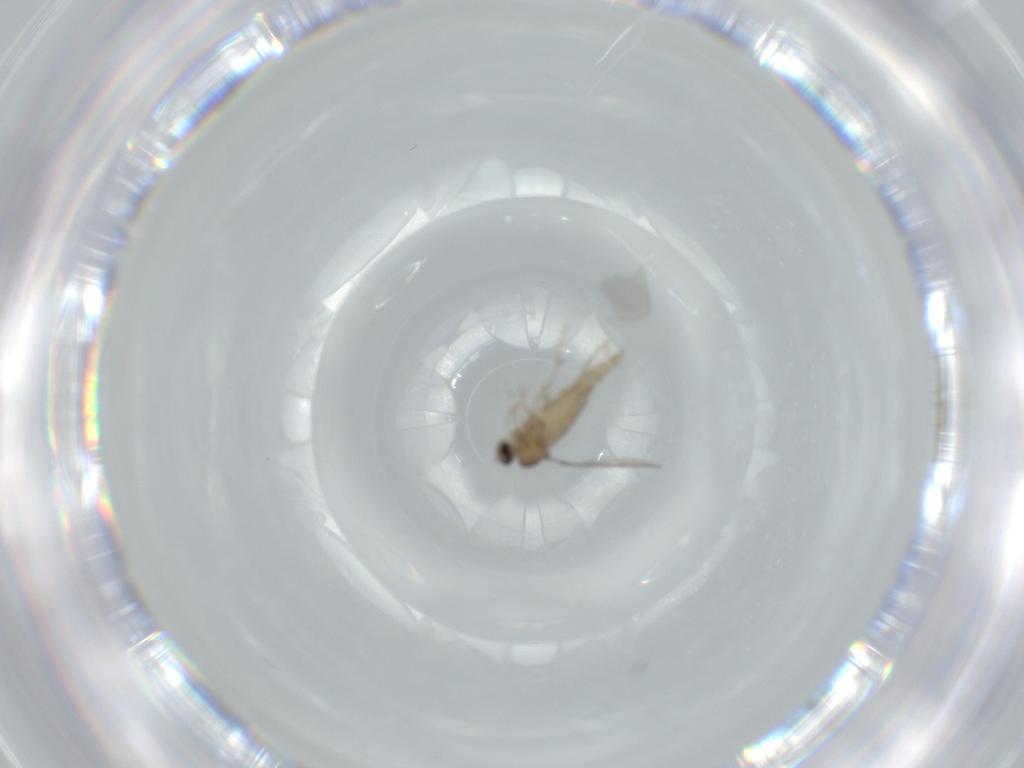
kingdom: Animalia
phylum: Arthropoda
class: Insecta
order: Diptera
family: Cecidomyiidae
